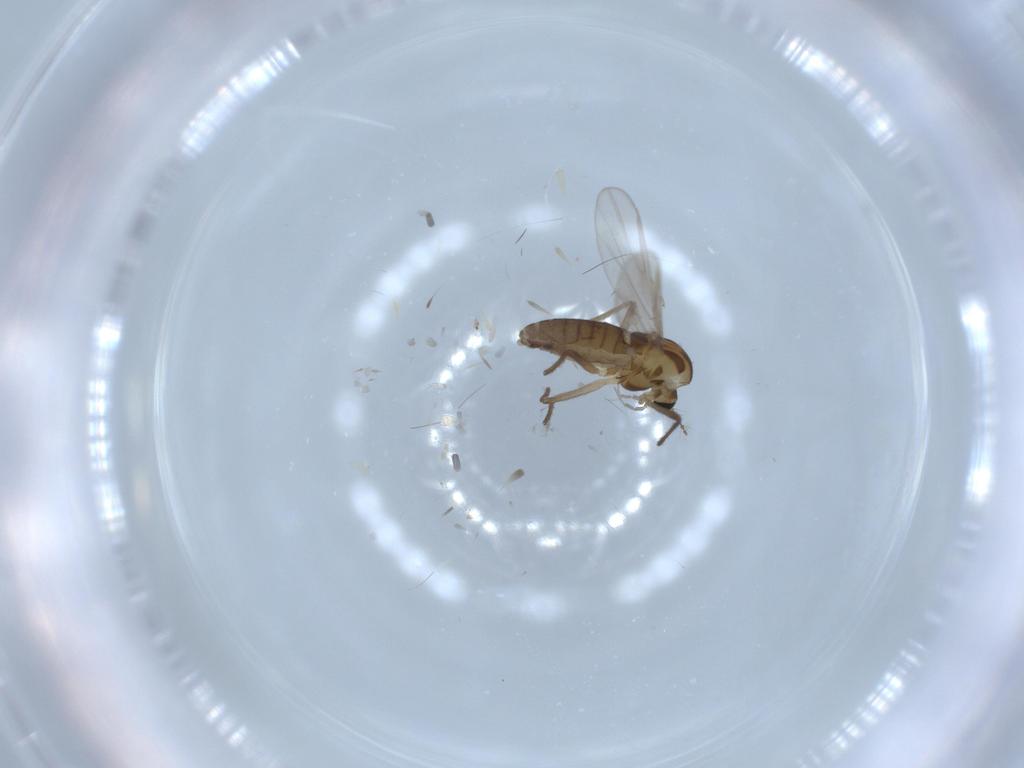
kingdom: Animalia
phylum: Arthropoda
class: Insecta
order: Diptera
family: Chironomidae
